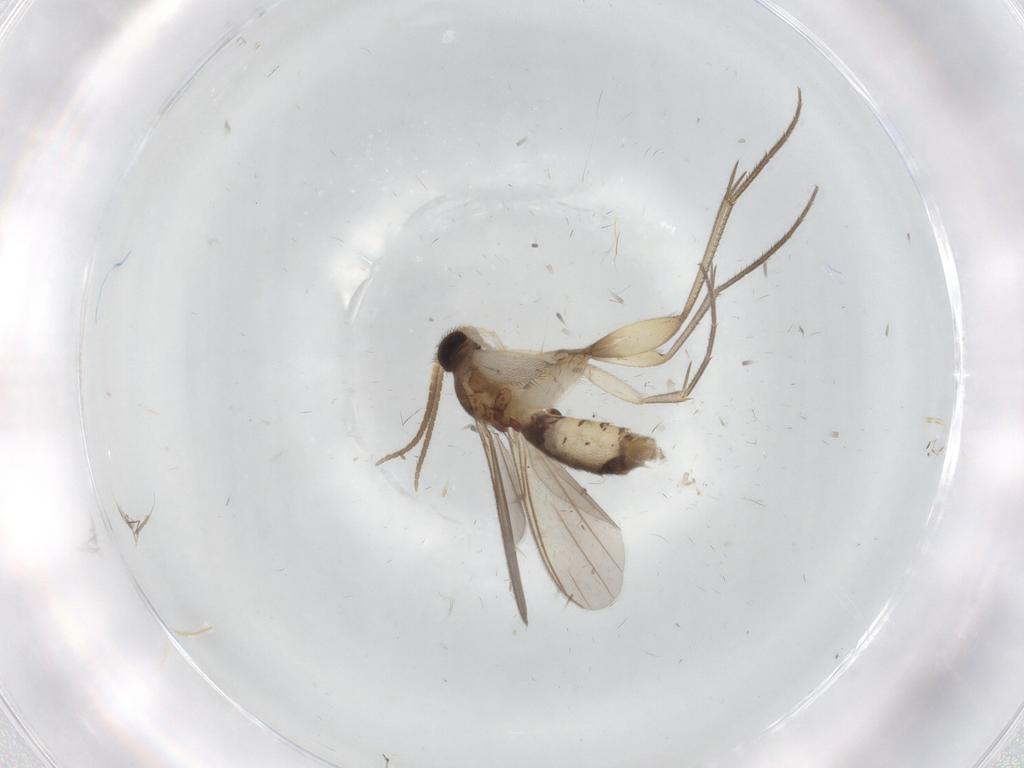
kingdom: Animalia
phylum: Arthropoda
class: Insecta
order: Diptera
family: Mycetophilidae
